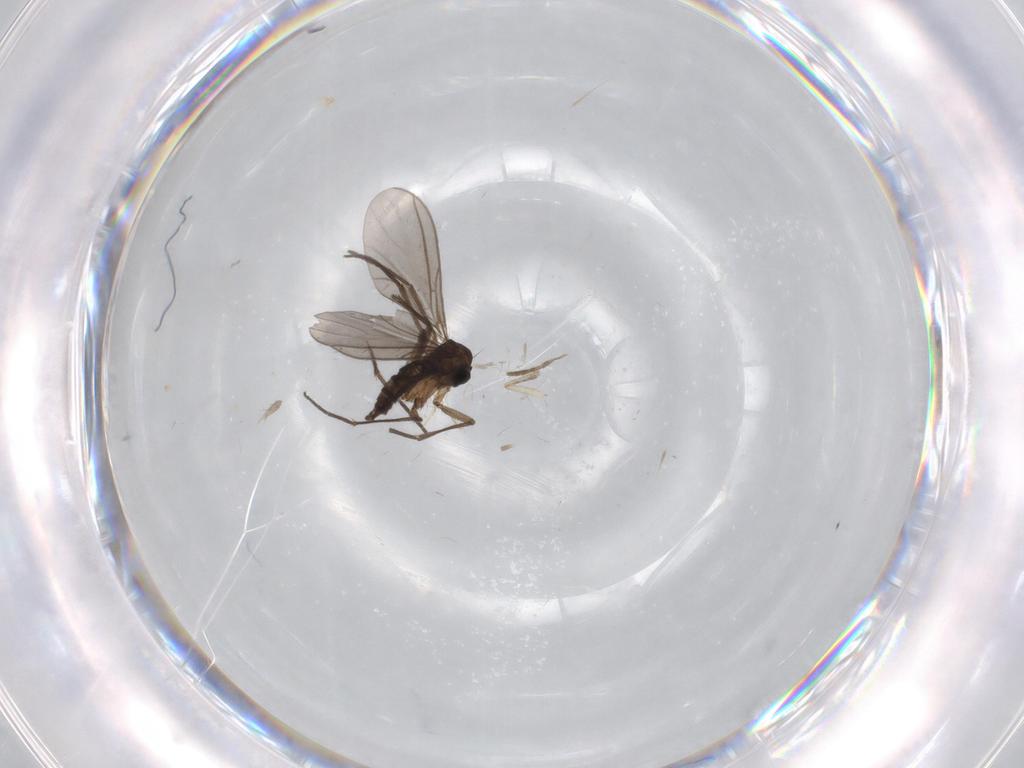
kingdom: Animalia
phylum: Arthropoda
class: Insecta
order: Diptera
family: Sciaridae
